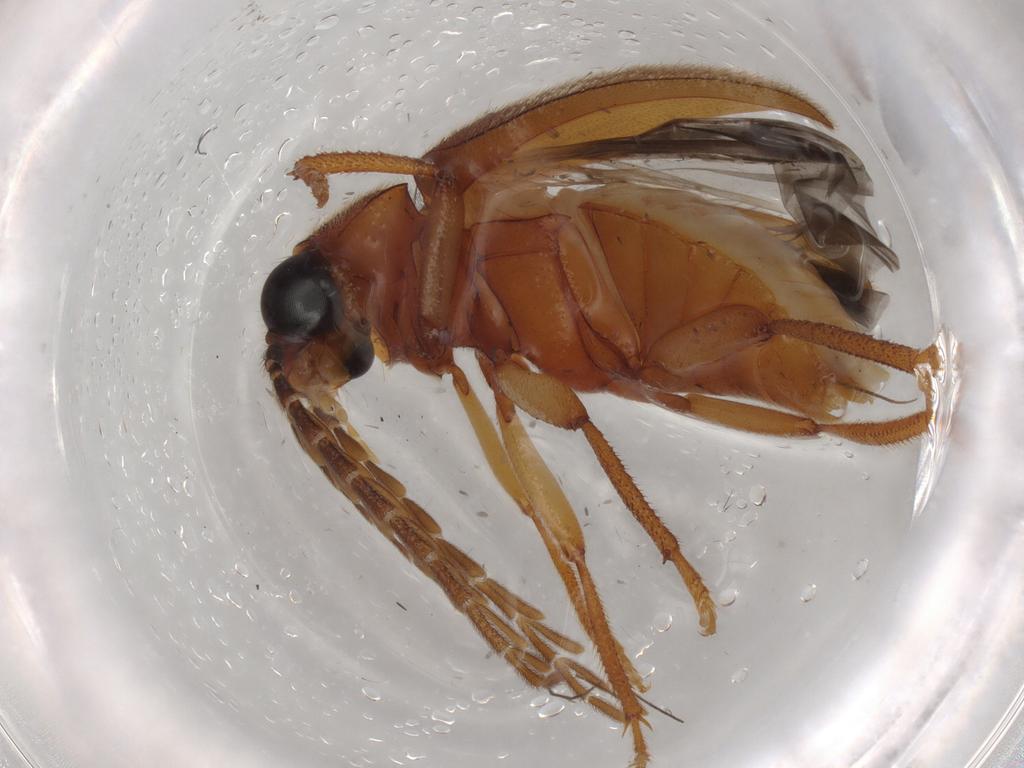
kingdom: Animalia
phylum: Arthropoda
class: Insecta
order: Coleoptera
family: Ptilodactylidae
